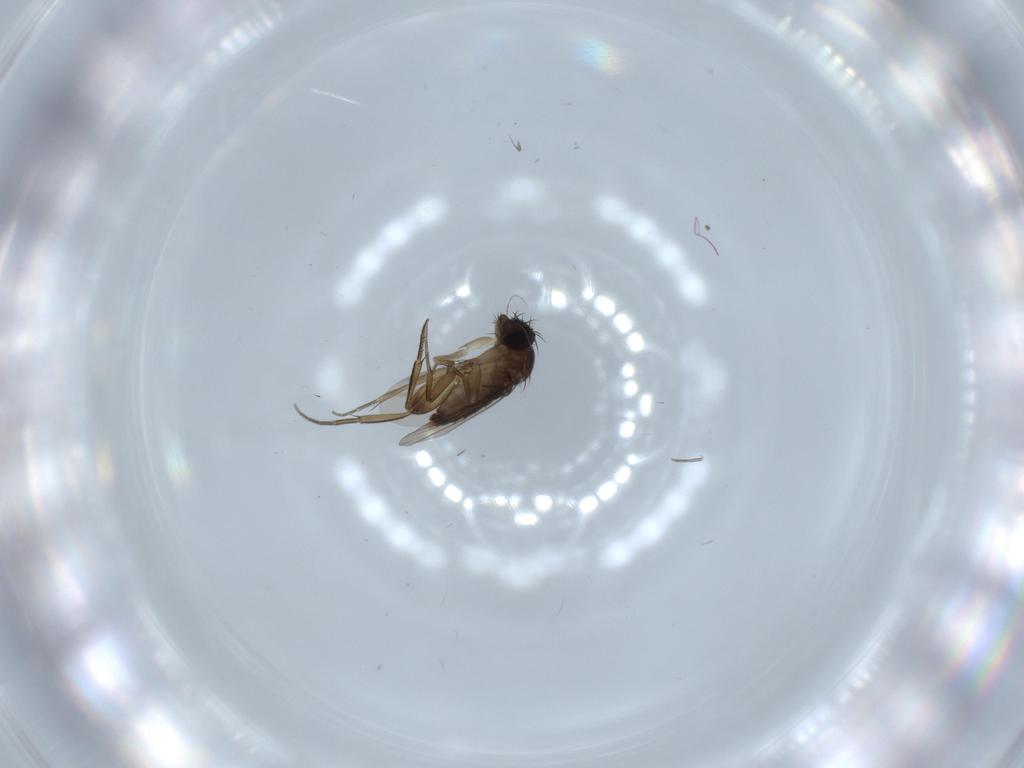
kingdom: Animalia
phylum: Arthropoda
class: Insecta
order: Diptera
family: Phoridae
